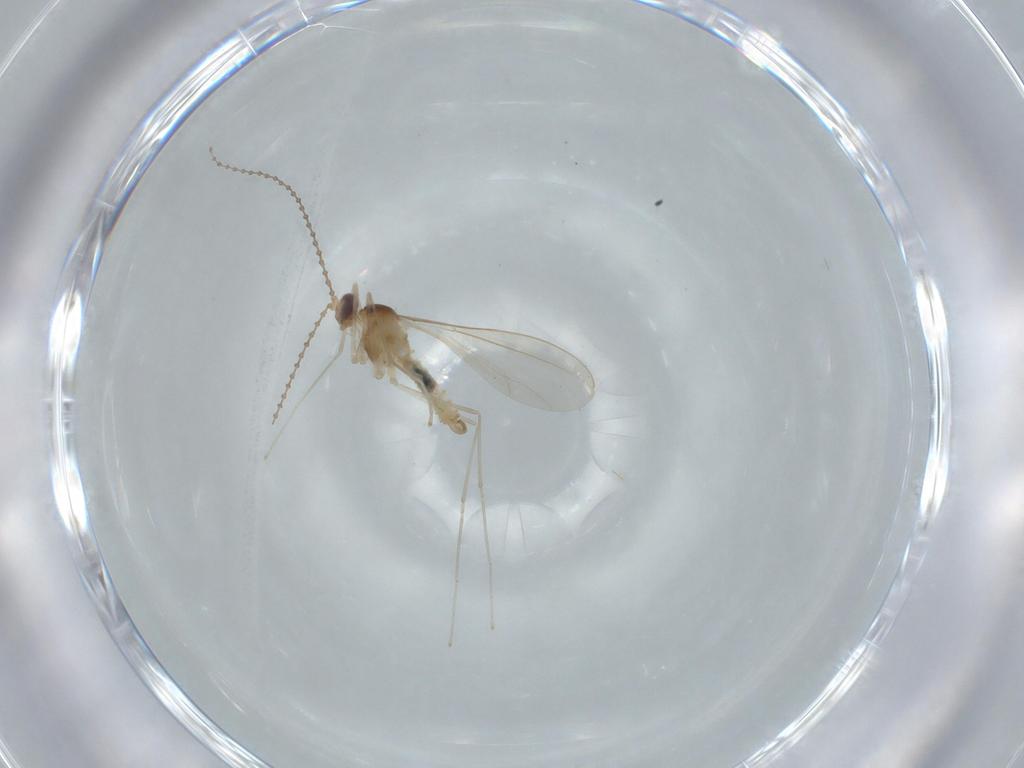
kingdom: Animalia
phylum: Arthropoda
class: Insecta
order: Diptera
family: Cecidomyiidae
